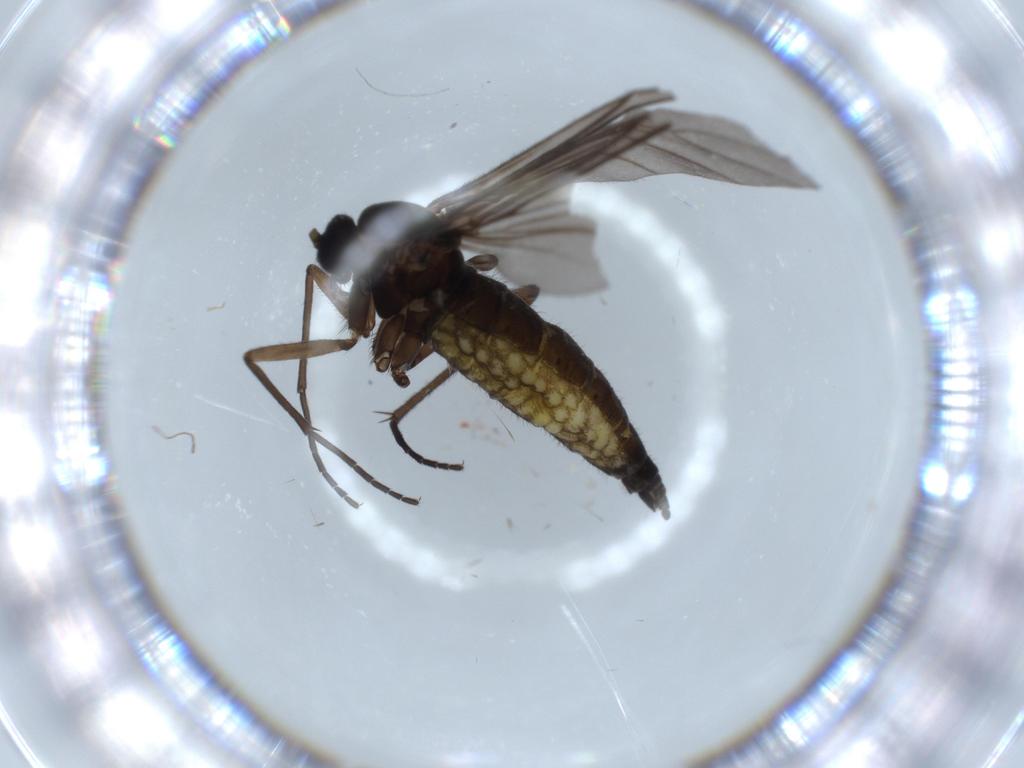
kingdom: Animalia
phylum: Arthropoda
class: Insecta
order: Diptera
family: Sciaridae
